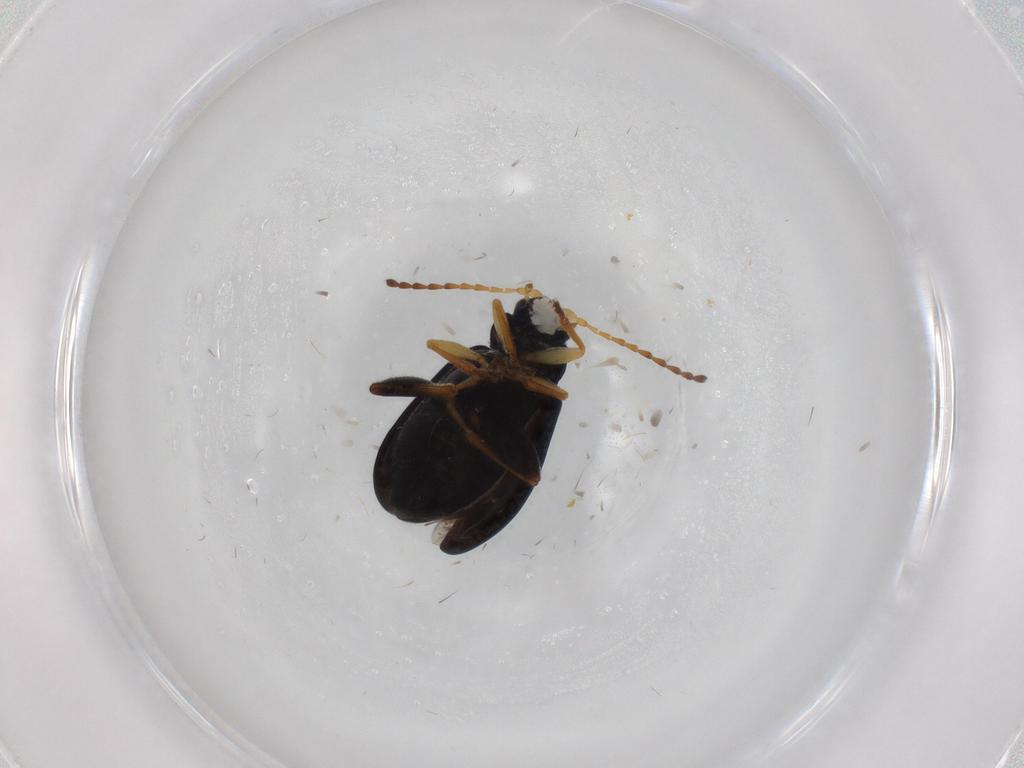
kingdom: Animalia
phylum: Arthropoda
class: Insecta
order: Coleoptera
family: Chrysomelidae
